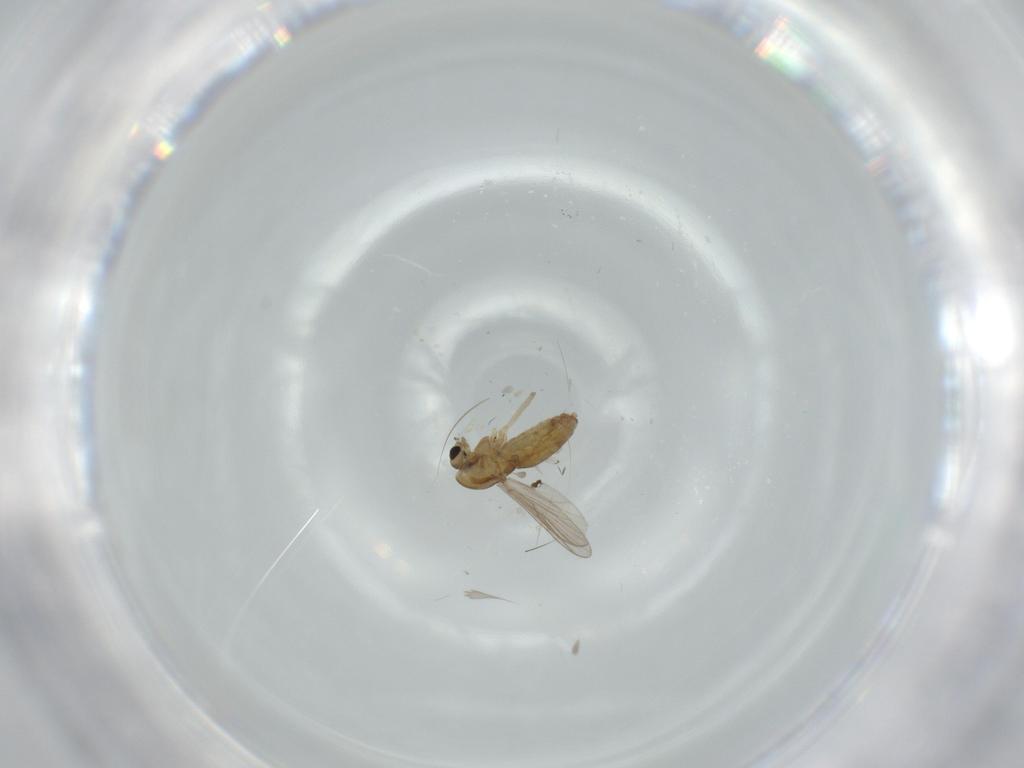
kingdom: Animalia
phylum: Arthropoda
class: Insecta
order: Diptera
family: Chironomidae
